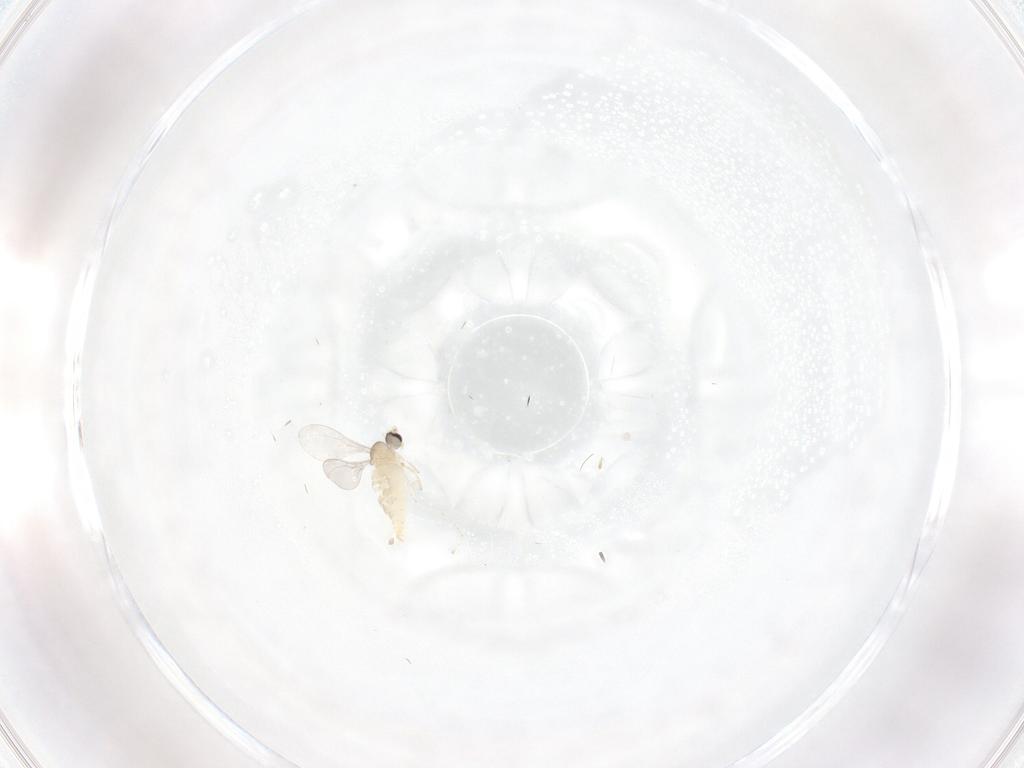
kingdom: Animalia
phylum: Arthropoda
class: Insecta
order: Diptera
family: Cecidomyiidae
